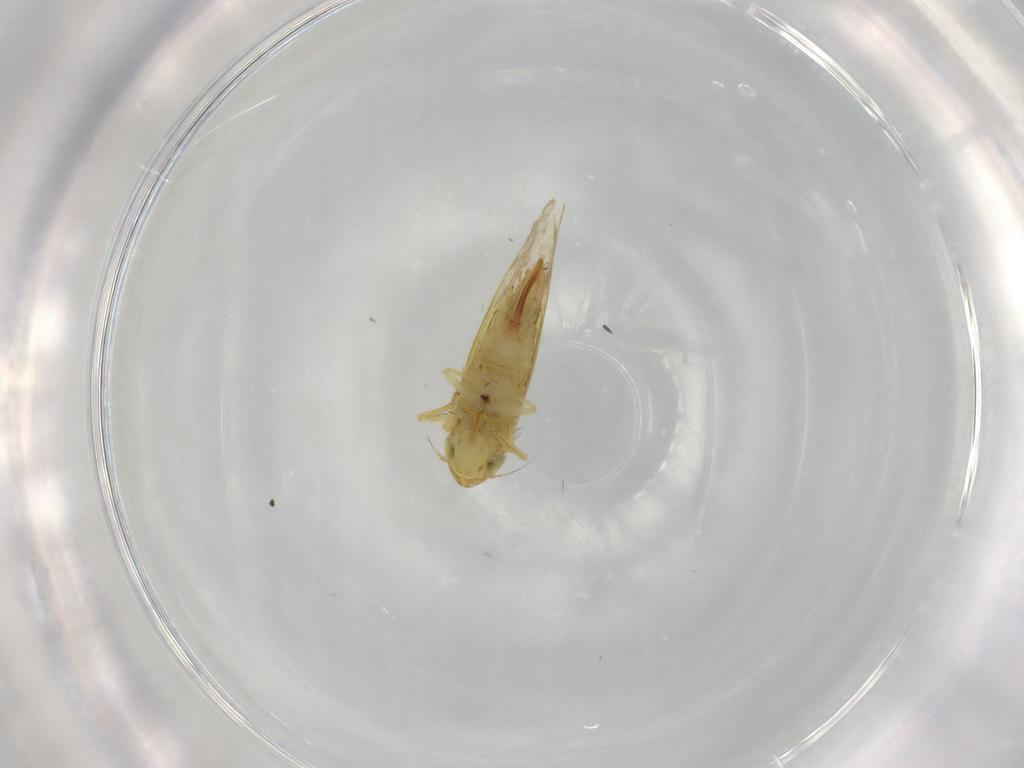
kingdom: Animalia
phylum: Arthropoda
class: Insecta
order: Hemiptera
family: Cicadellidae
